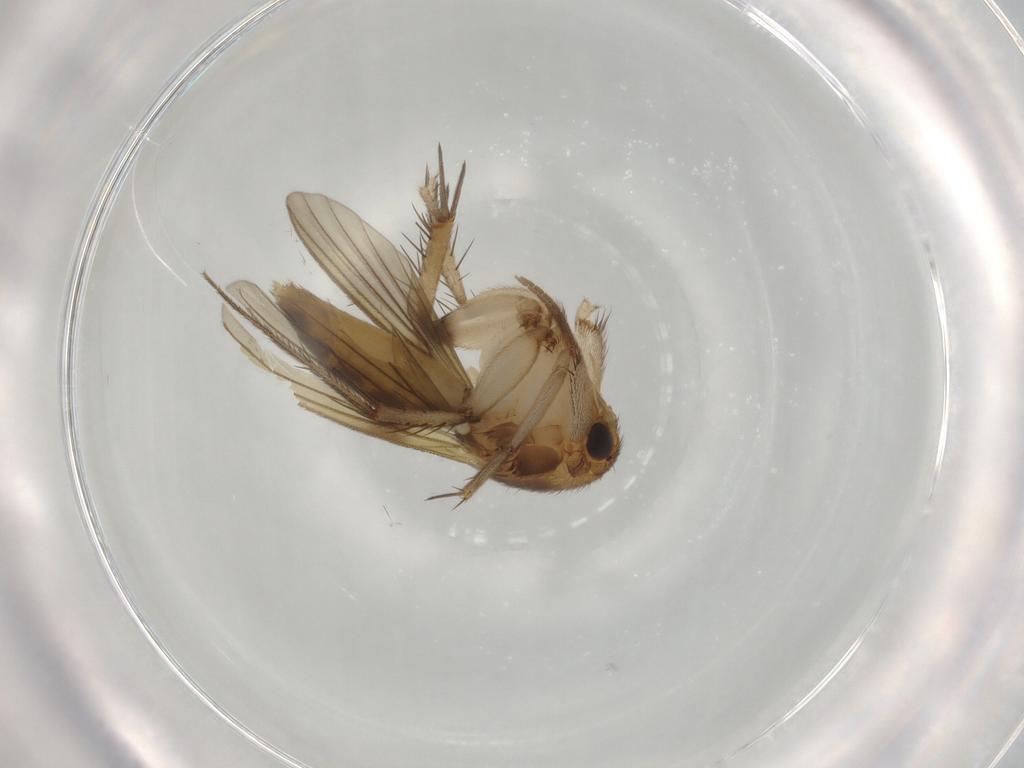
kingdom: Animalia
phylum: Arthropoda
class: Insecta
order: Diptera
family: Mycetophilidae
